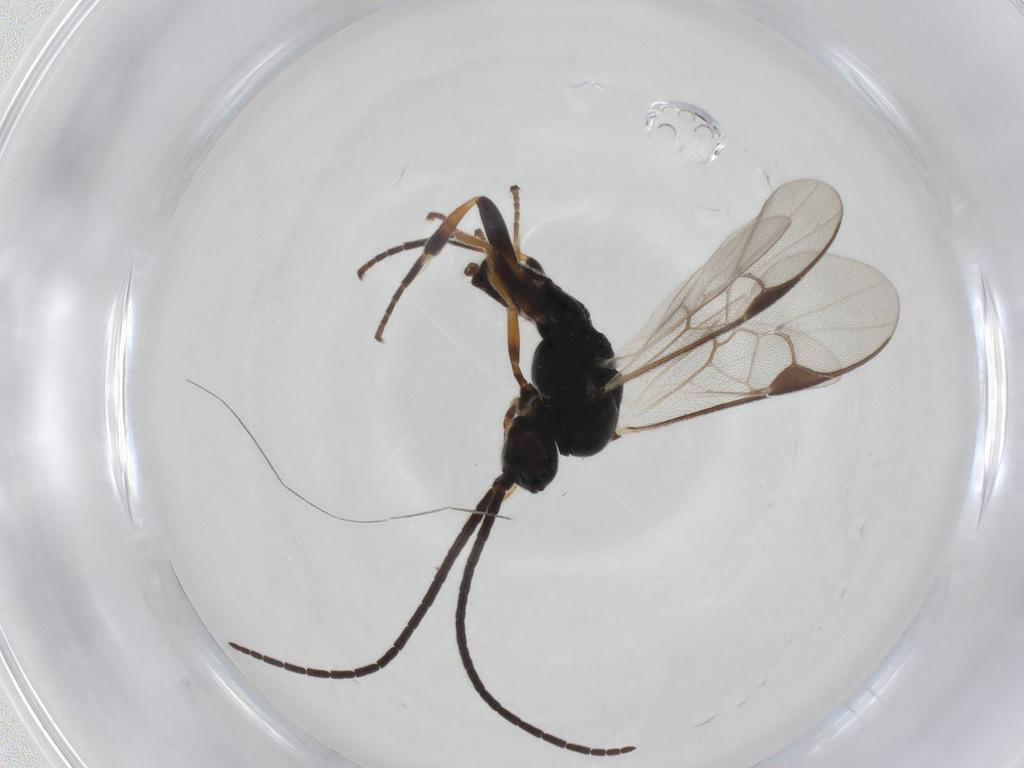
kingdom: Animalia
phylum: Arthropoda
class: Insecta
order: Hymenoptera
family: Braconidae
